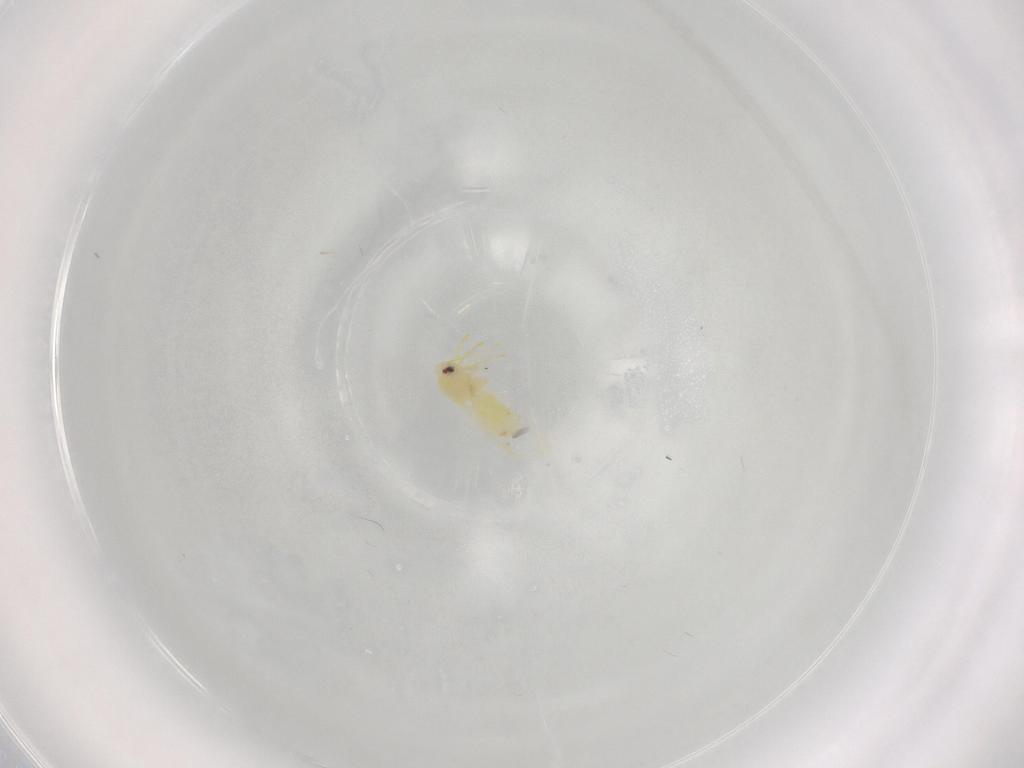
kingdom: Animalia
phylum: Arthropoda
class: Insecta
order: Hemiptera
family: Aleyrodidae
